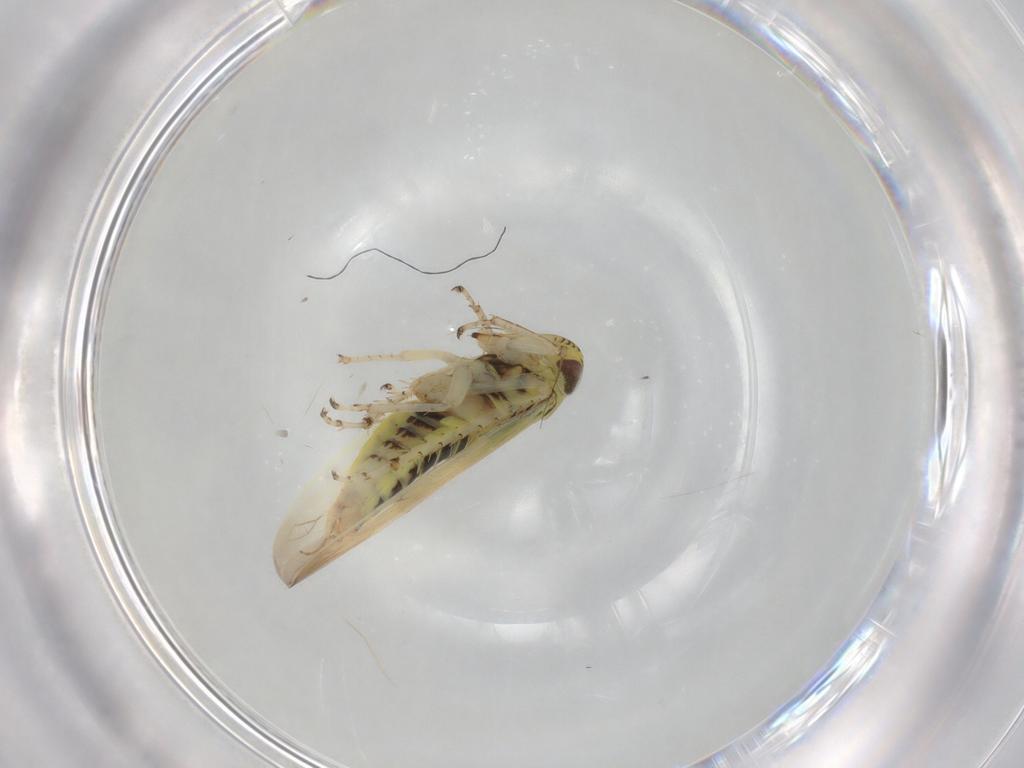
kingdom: Animalia
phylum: Arthropoda
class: Insecta
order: Hemiptera
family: Cicadellidae
